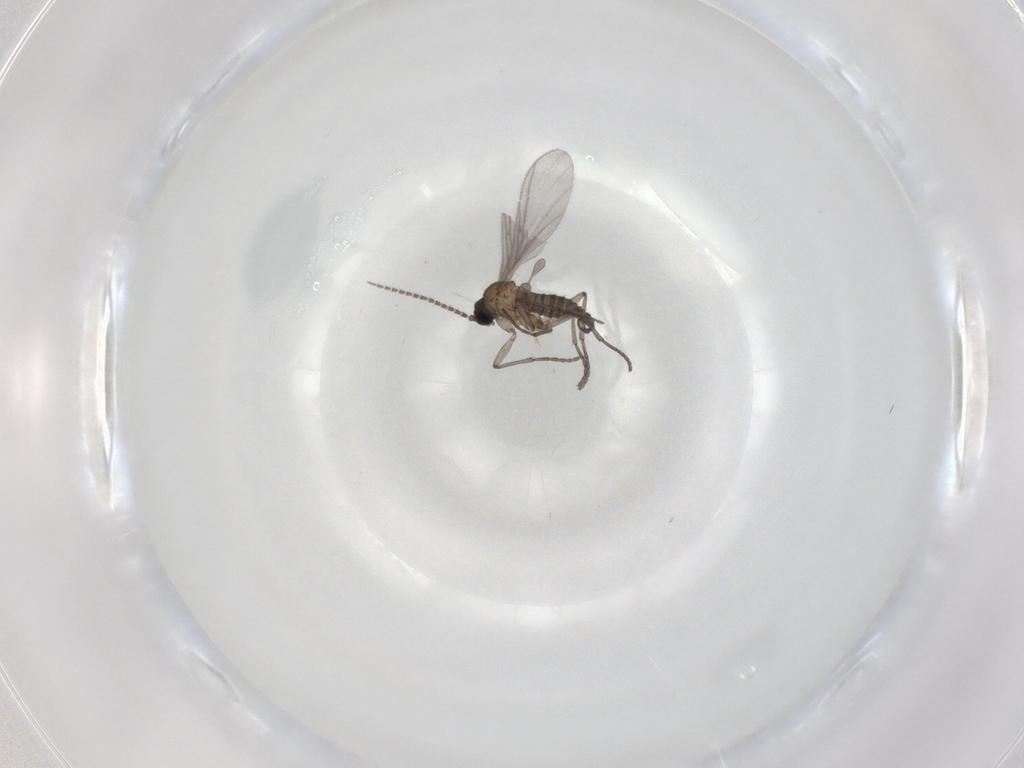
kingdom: Animalia
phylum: Arthropoda
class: Insecta
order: Diptera
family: Sciaridae
